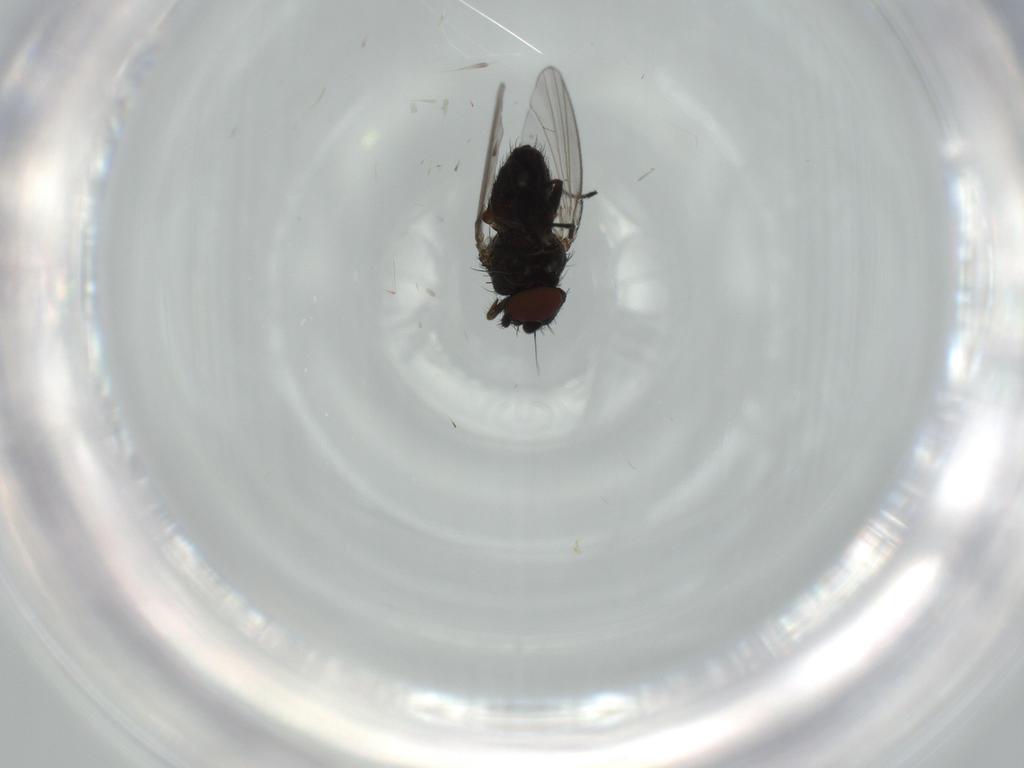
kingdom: Animalia
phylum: Arthropoda
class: Insecta
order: Diptera
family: Milichiidae
